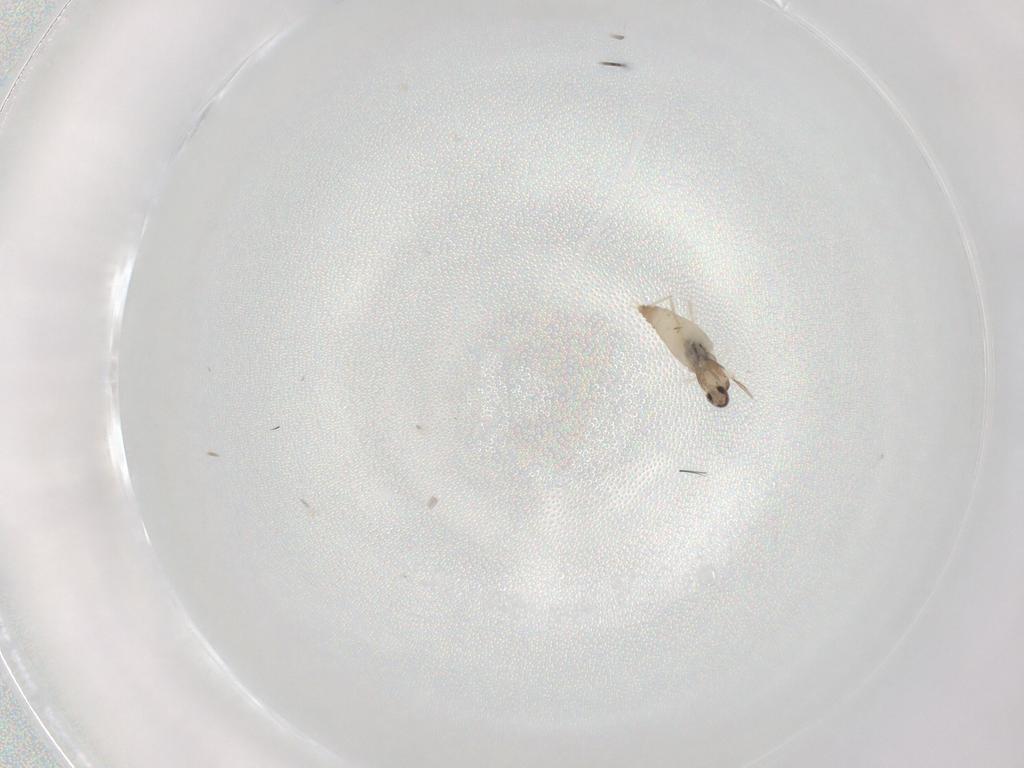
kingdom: Animalia
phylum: Arthropoda
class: Insecta
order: Diptera
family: Cecidomyiidae
